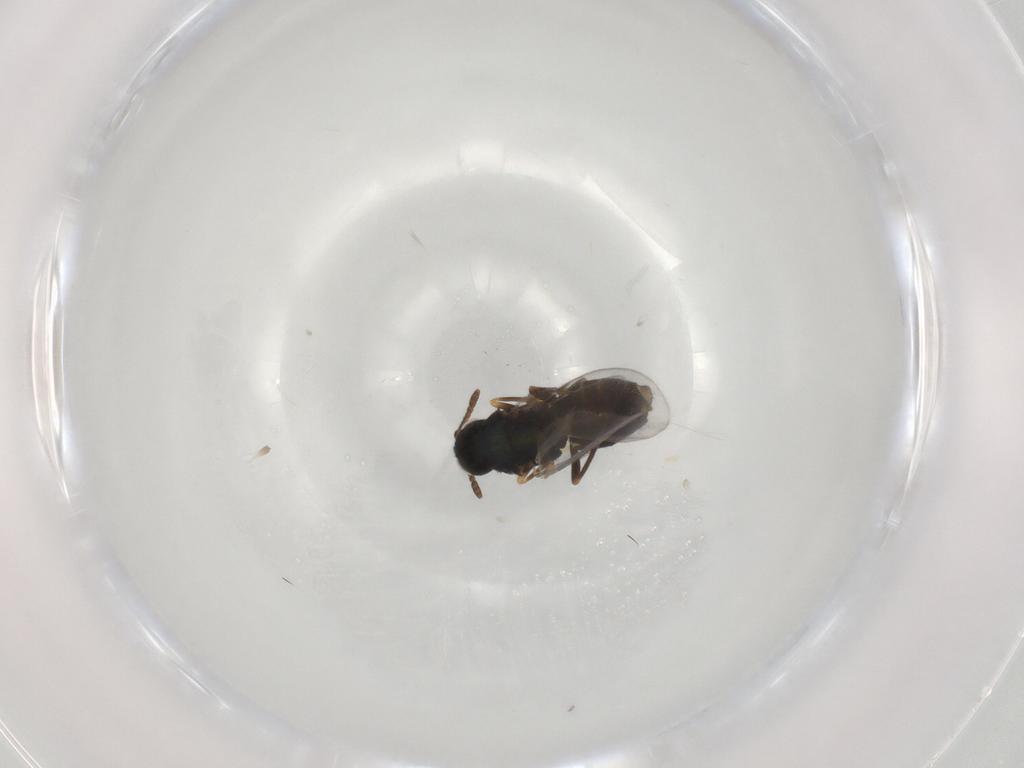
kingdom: Animalia
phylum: Arthropoda
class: Insecta
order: Hymenoptera
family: Encyrtidae
